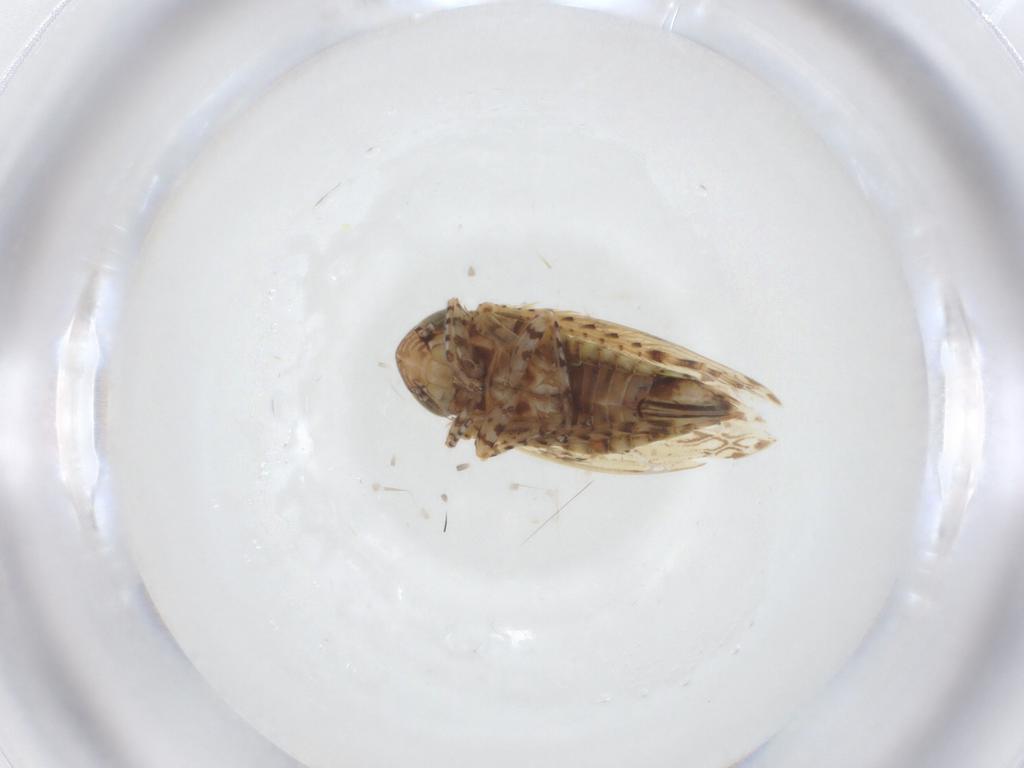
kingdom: Animalia
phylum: Arthropoda
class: Insecta
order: Hemiptera
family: Cicadellidae
